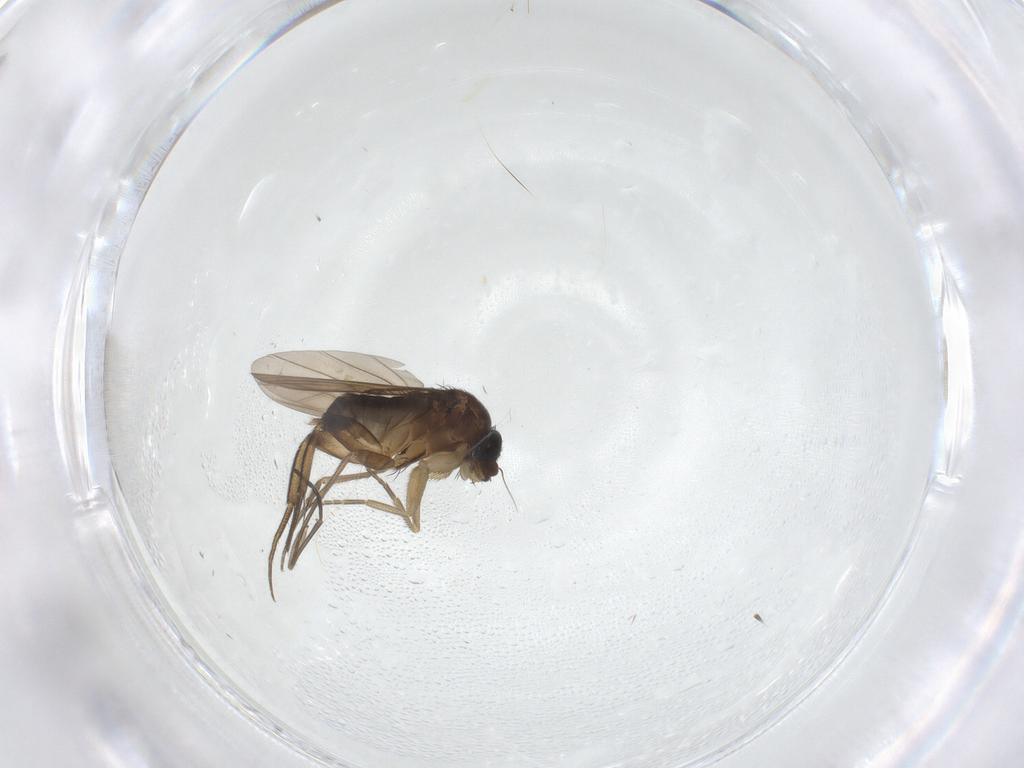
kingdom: Animalia
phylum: Arthropoda
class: Insecta
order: Diptera
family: Phoridae
